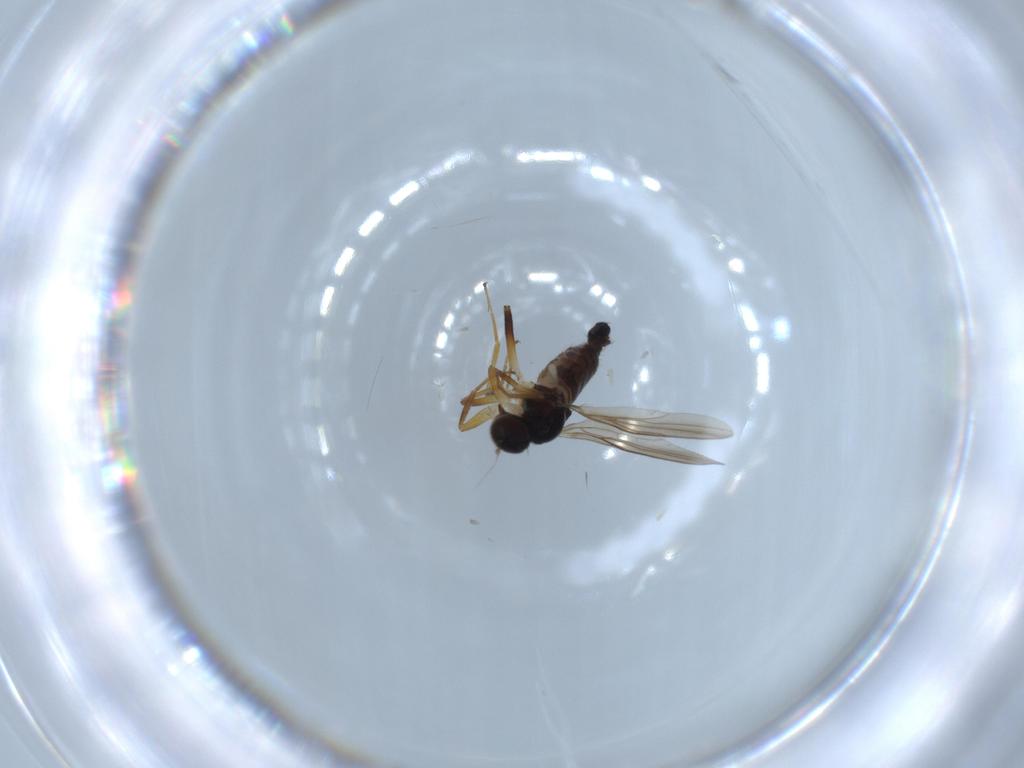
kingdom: Animalia
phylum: Arthropoda
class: Insecta
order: Diptera
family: Hybotidae
